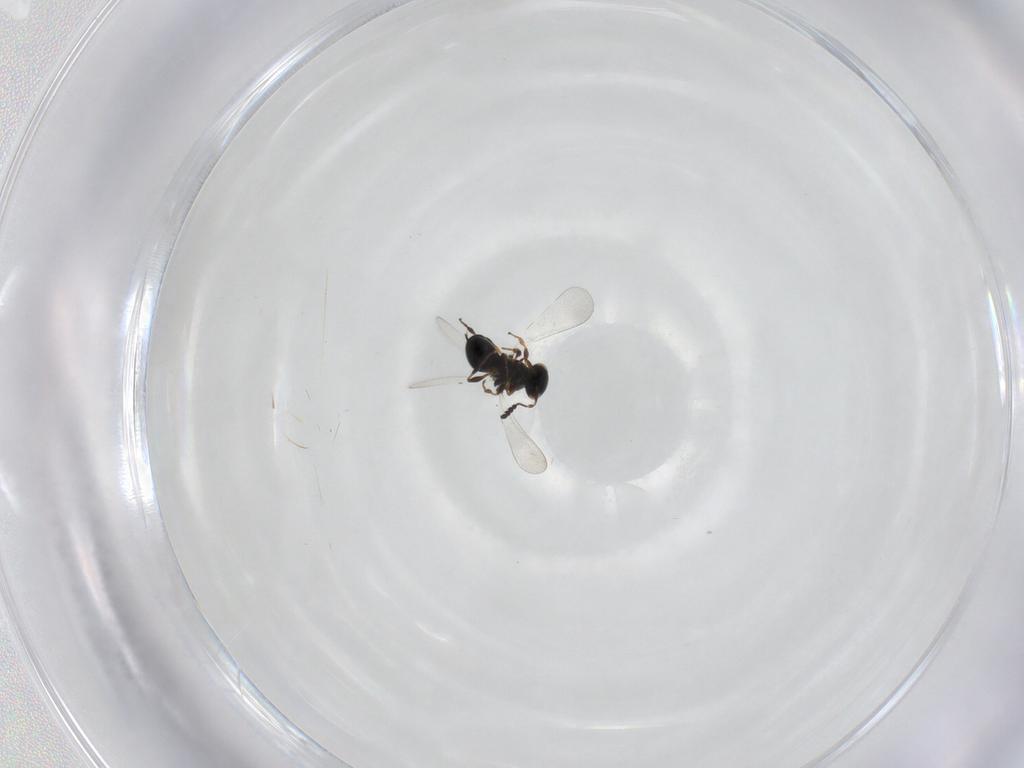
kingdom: Animalia
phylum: Arthropoda
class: Insecta
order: Hymenoptera
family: Platygastridae
